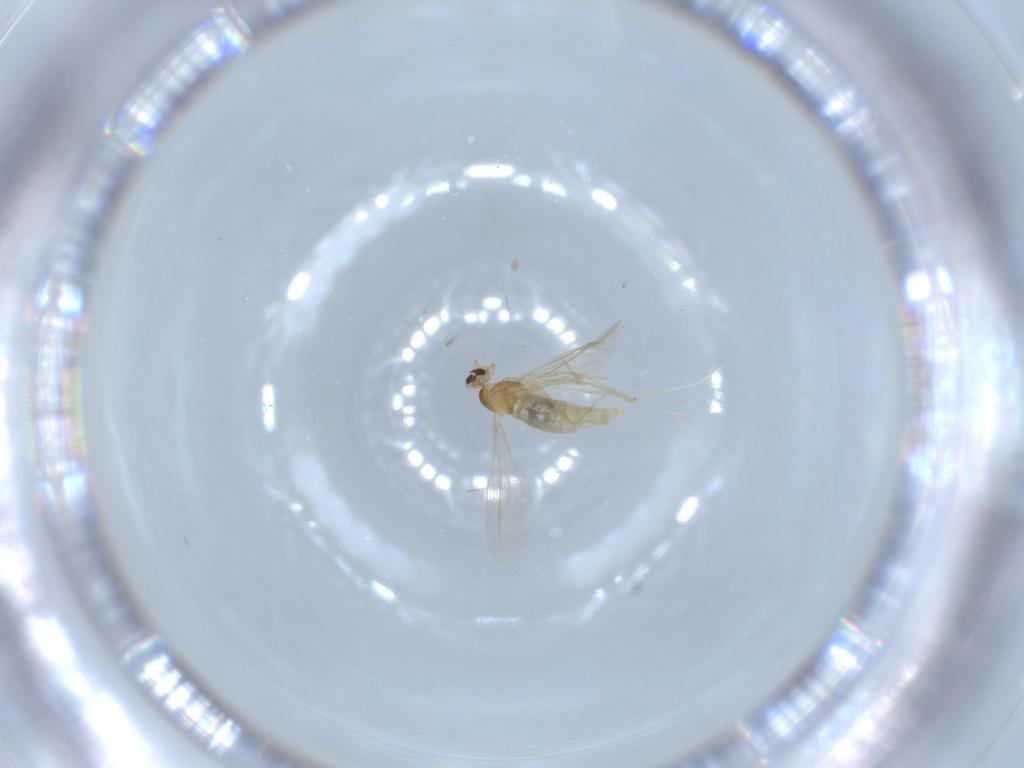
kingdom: Animalia
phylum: Arthropoda
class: Insecta
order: Diptera
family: Cecidomyiidae
